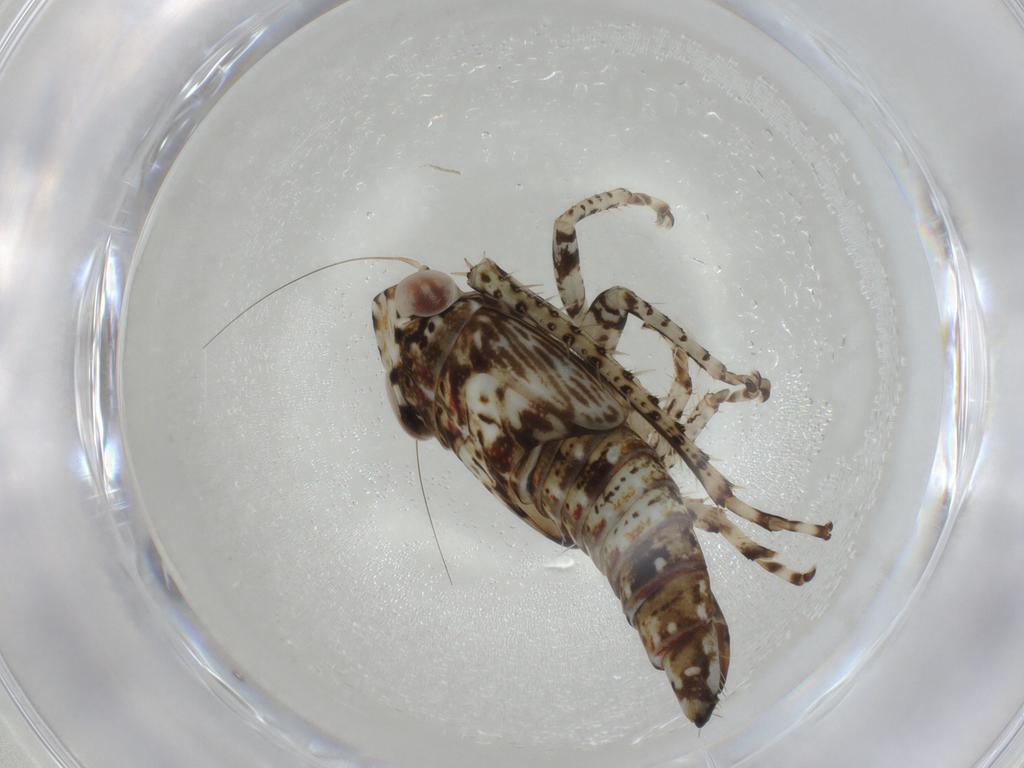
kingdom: Animalia
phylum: Arthropoda
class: Insecta
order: Hemiptera
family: Cicadellidae
